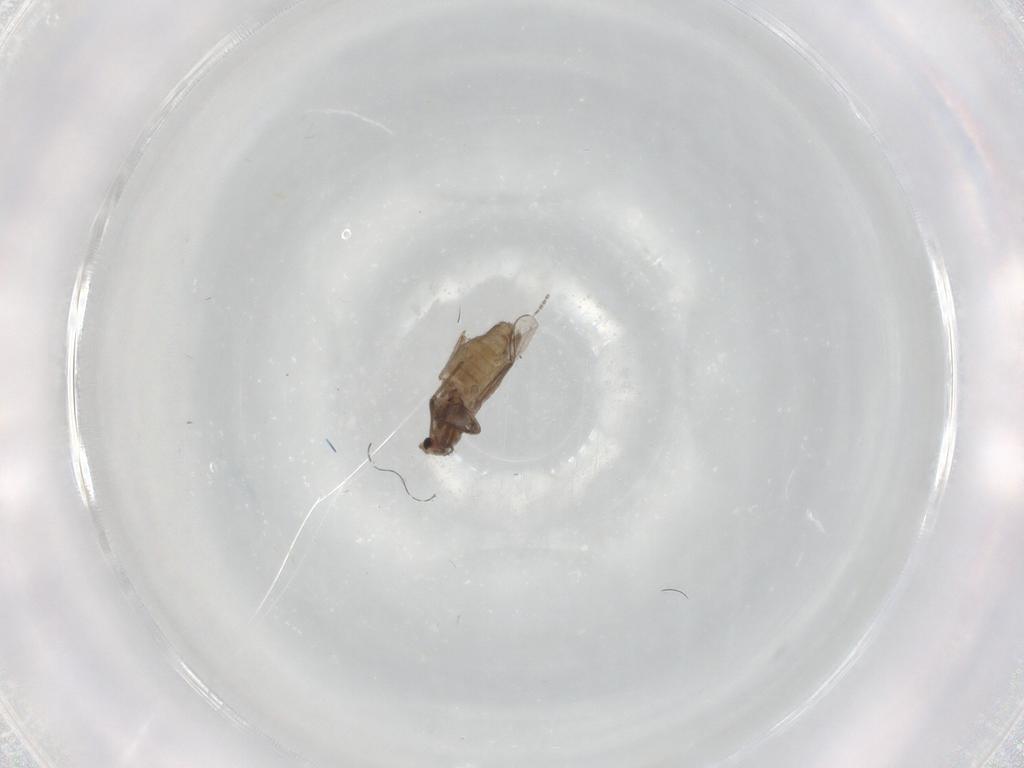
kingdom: Animalia
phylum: Arthropoda
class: Insecta
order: Diptera
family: Chironomidae
